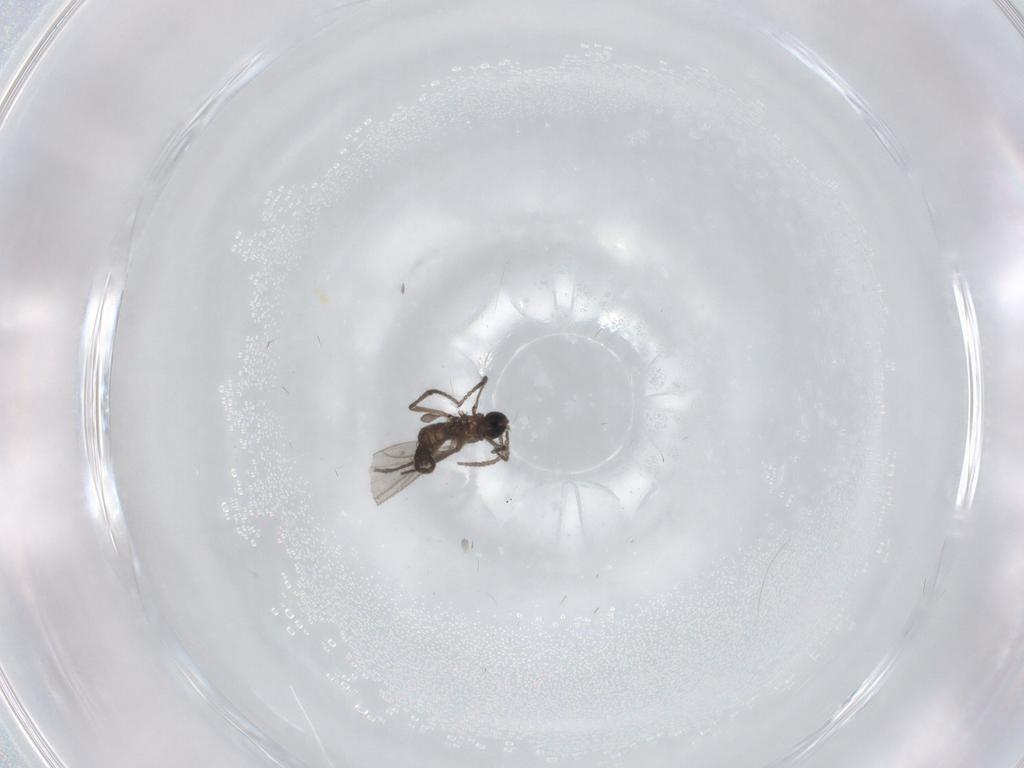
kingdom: Animalia
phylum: Arthropoda
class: Insecta
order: Diptera
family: Sciaridae
